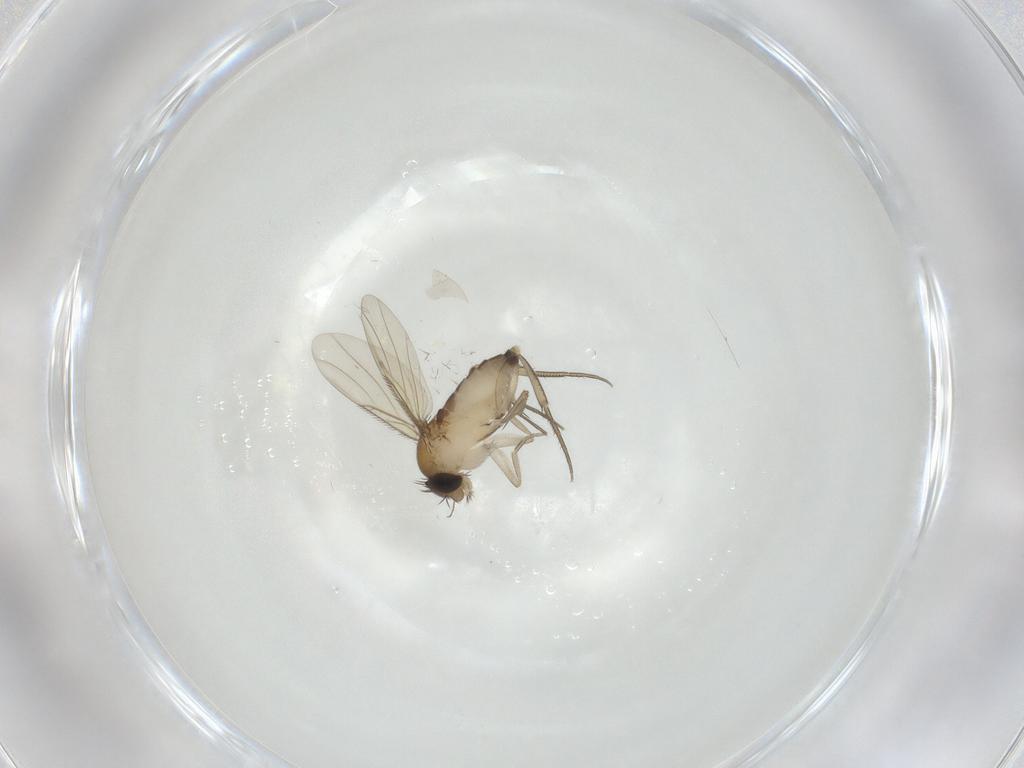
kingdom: Animalia
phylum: Arthropoda
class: Insecta
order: Diptera
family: Phoridae
